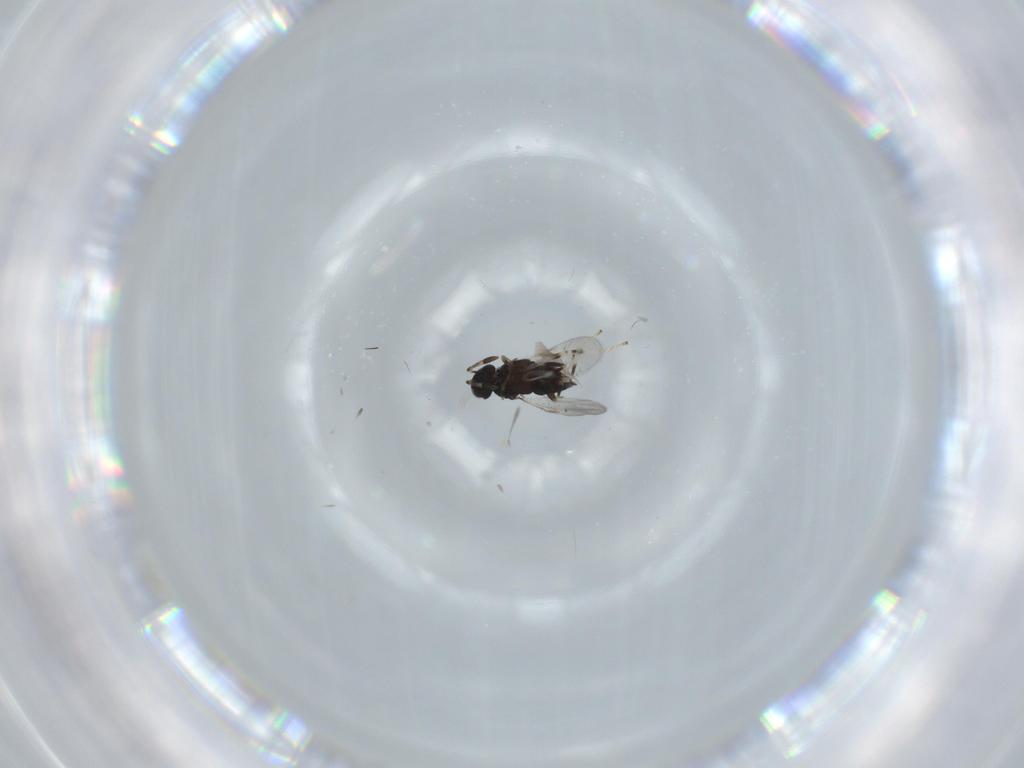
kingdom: Animalia
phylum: Arthropoda
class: Insecta
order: Hymenoptera
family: Encyrtidae
